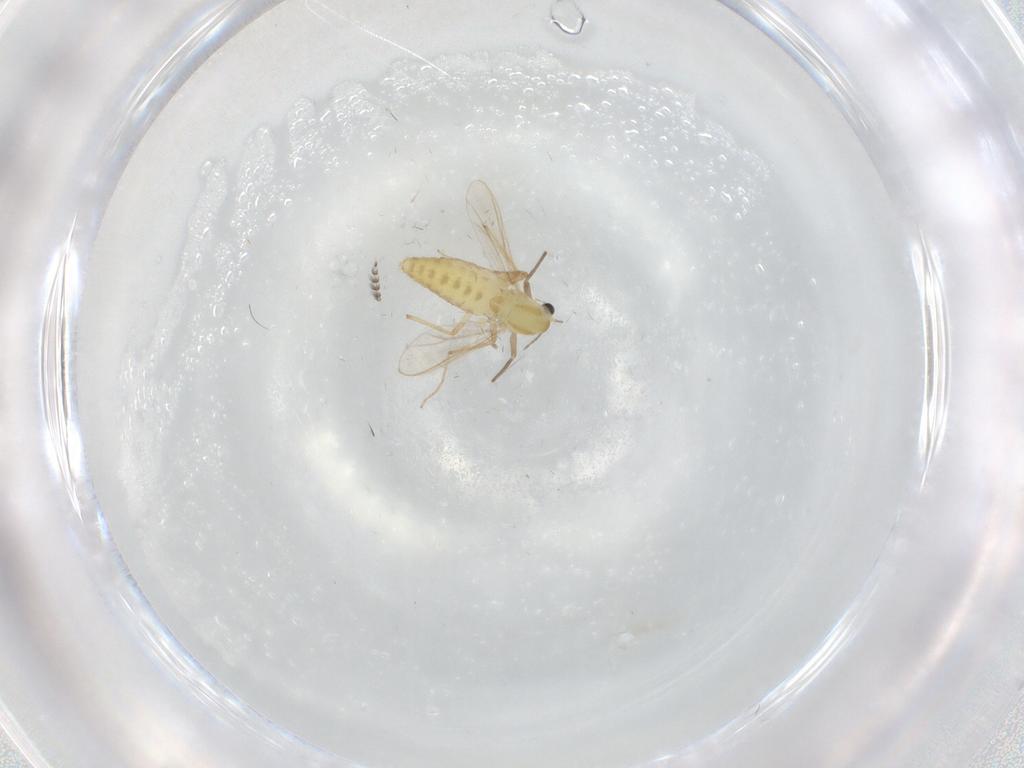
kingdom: Animalia
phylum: Arthropoda
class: Insecta
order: Diptera
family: Chironomidae
